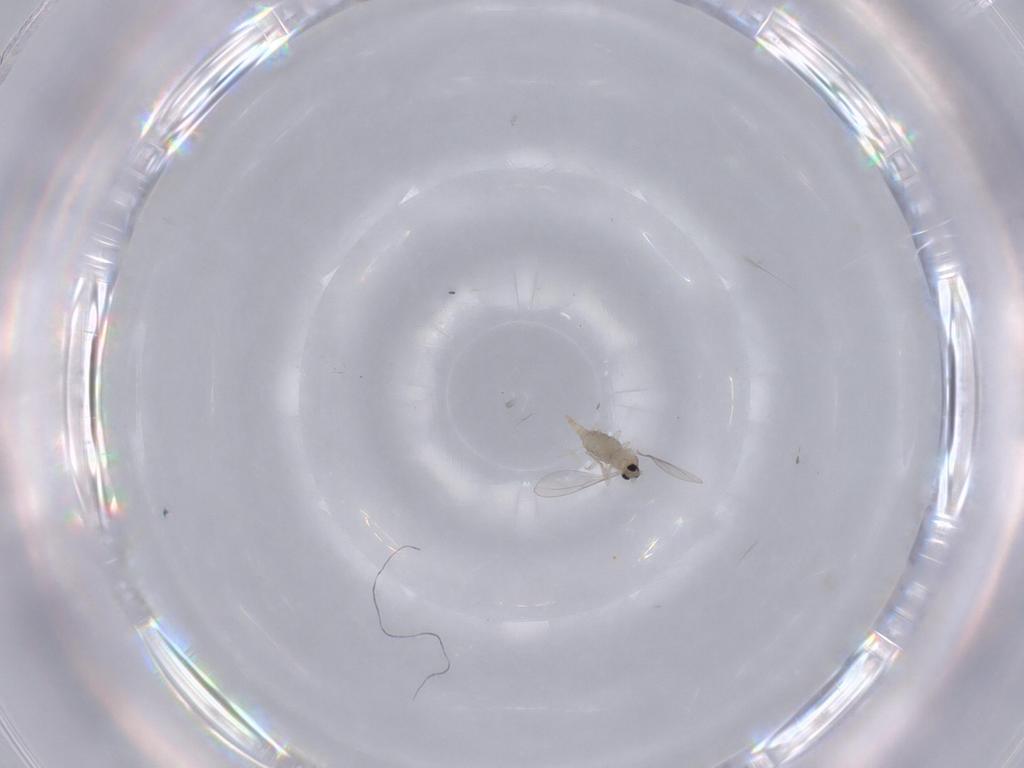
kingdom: Animalia
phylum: Arthropoda
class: Insecta
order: Diptera
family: Cecidomyiidae
